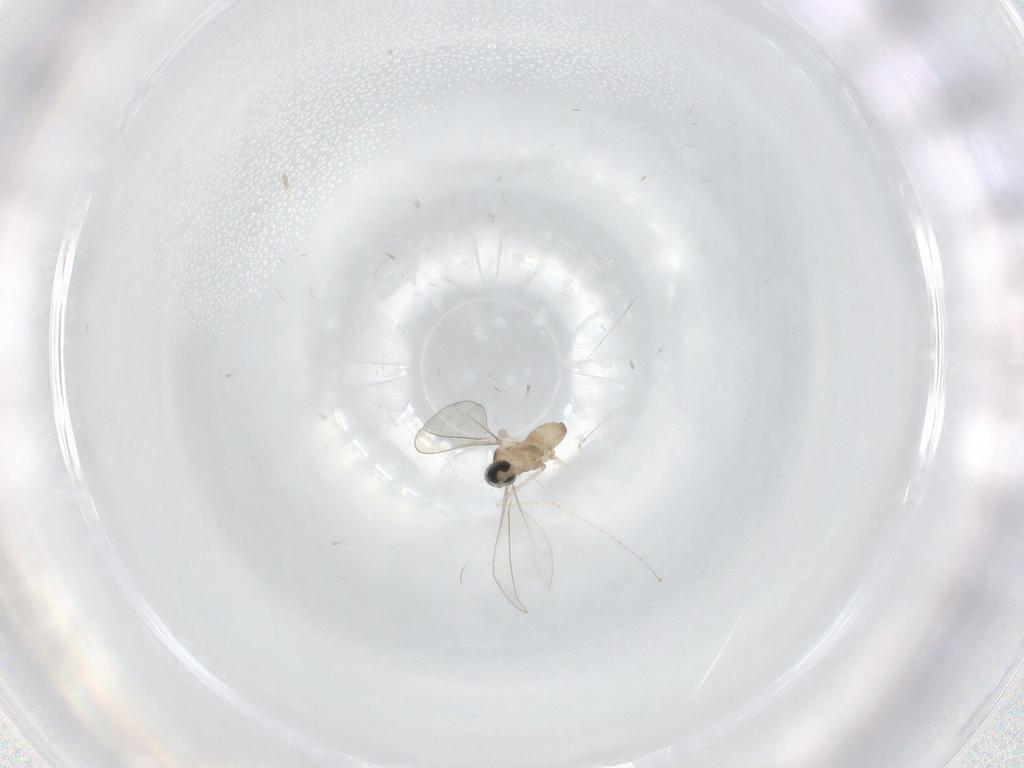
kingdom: Animalia
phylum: Arthropoda
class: Insecta
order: Diptera
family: Cecidomyiidae
